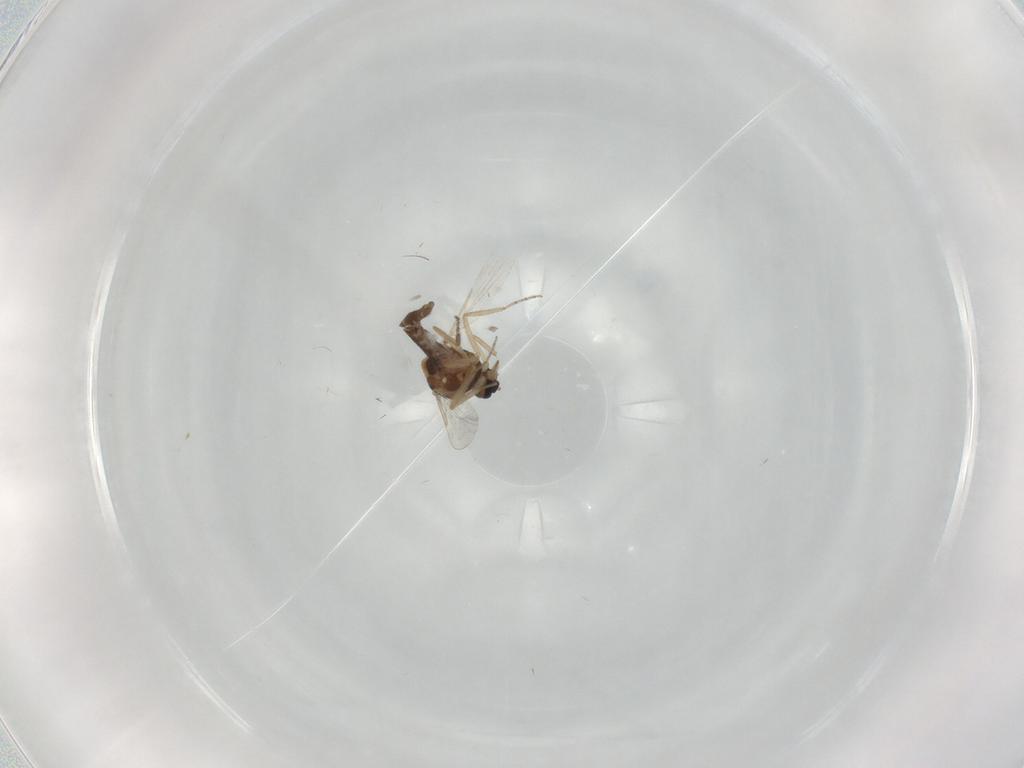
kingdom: Animalia
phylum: Arthropoda
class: Insecta
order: Diptera
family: Ceratopogonidae
